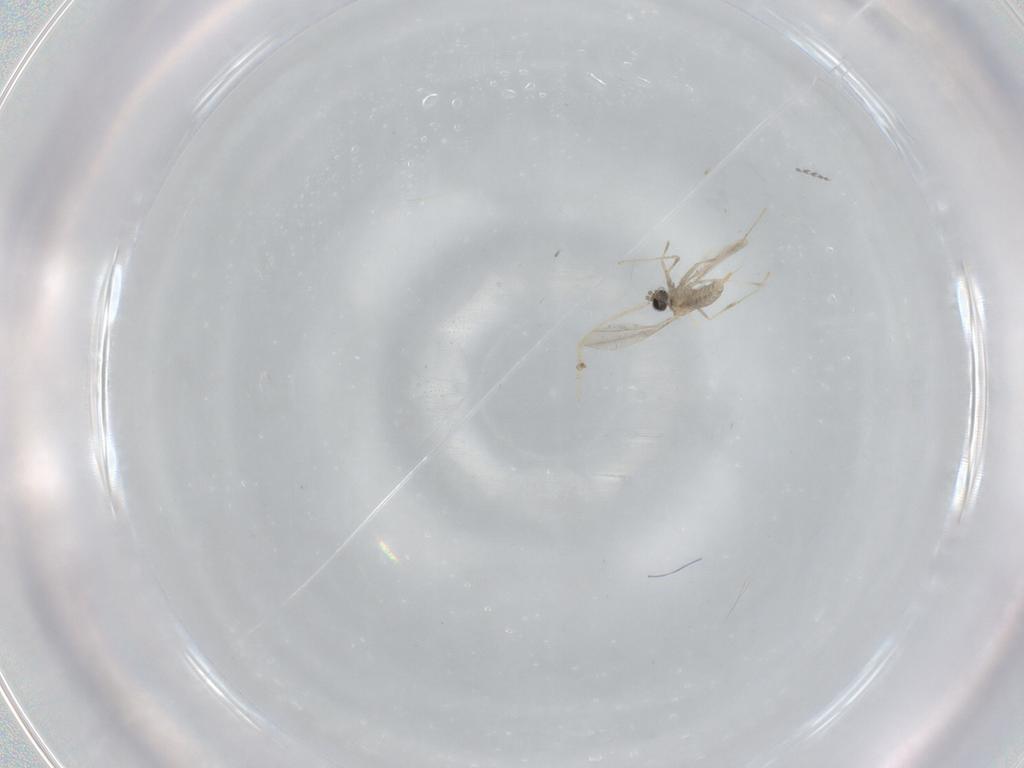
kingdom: Animalia
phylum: Arthropoda
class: Insecta
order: Diptera
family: Cecidomyiidae
